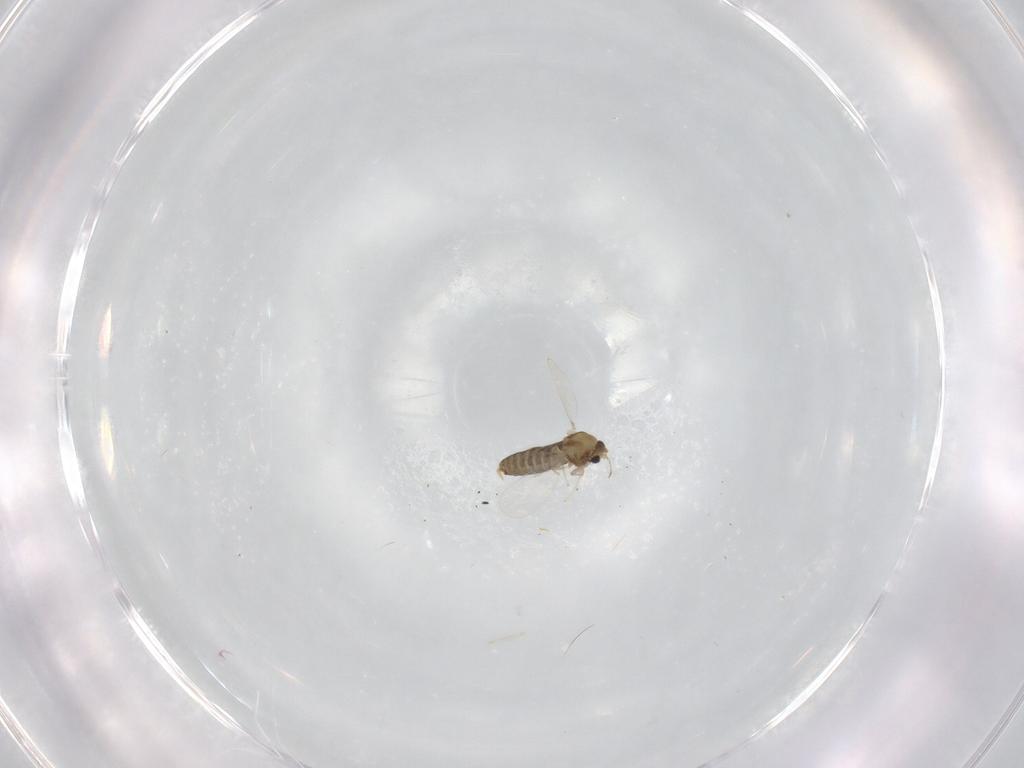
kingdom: Animalia
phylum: Arthropoda
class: Insecta
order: Diptera
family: Chironomidae
